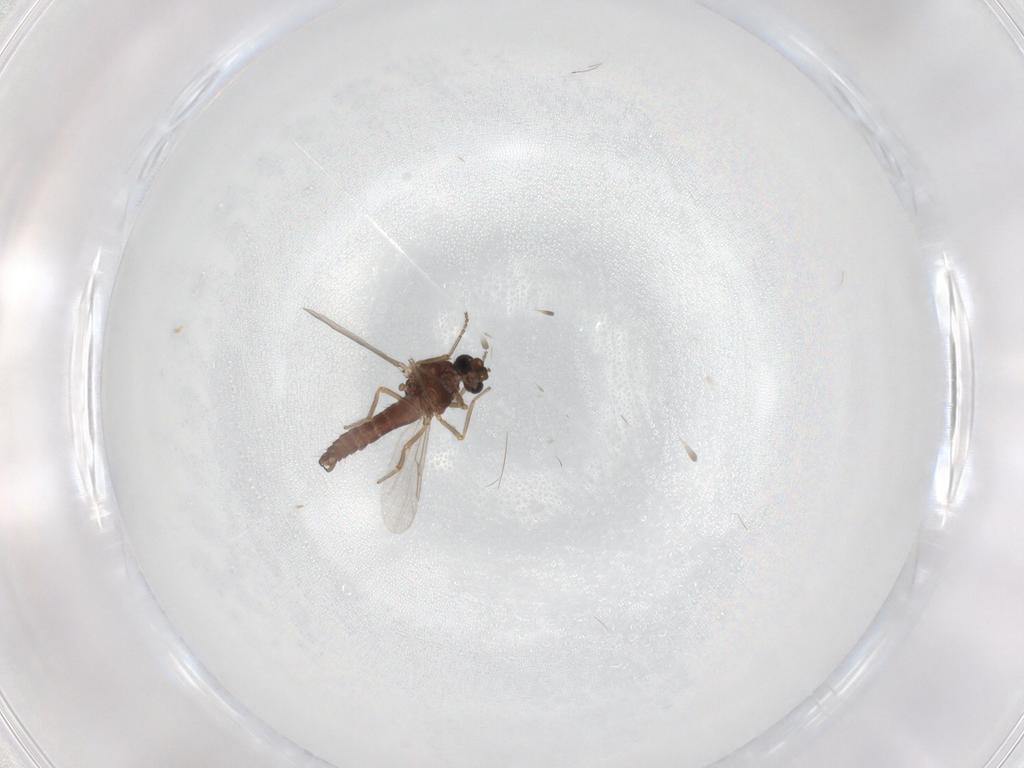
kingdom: Animalia
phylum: Arthropoda
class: Insecta
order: Diptera
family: Ceratopogonidae
